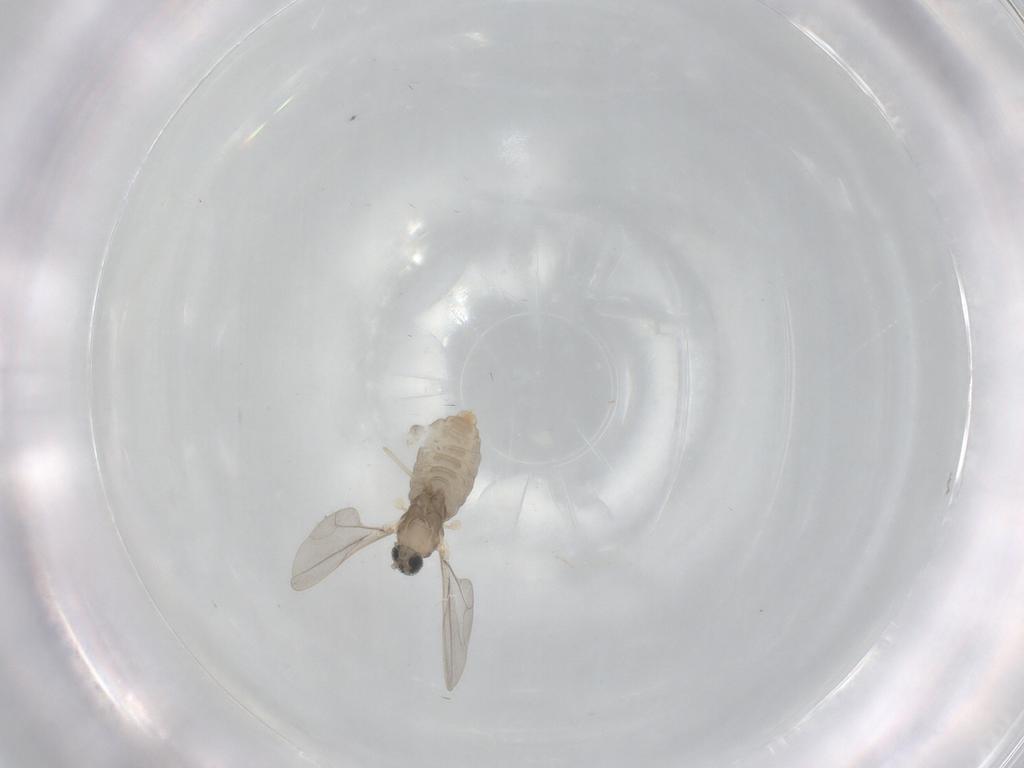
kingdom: Animalia
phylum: Arthropoda
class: Insecta
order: Diptera
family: Cecidomyiidae
